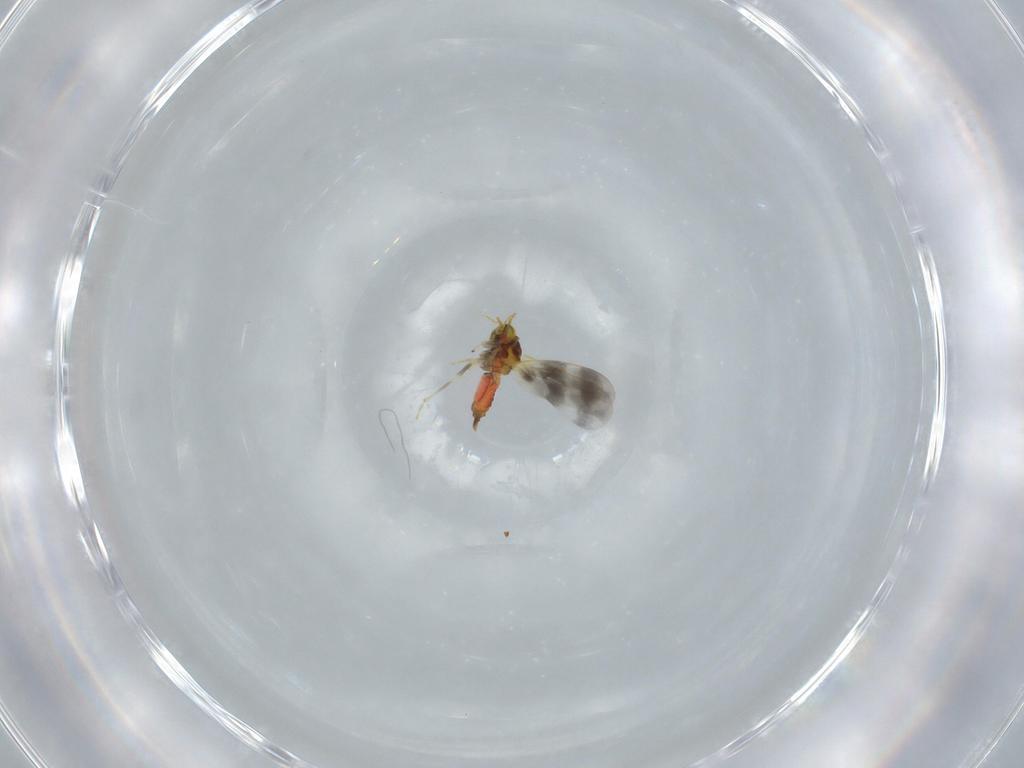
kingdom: Animalia
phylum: Arthropoda
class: Insecta
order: Hemiptera
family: Aleyrodidae
